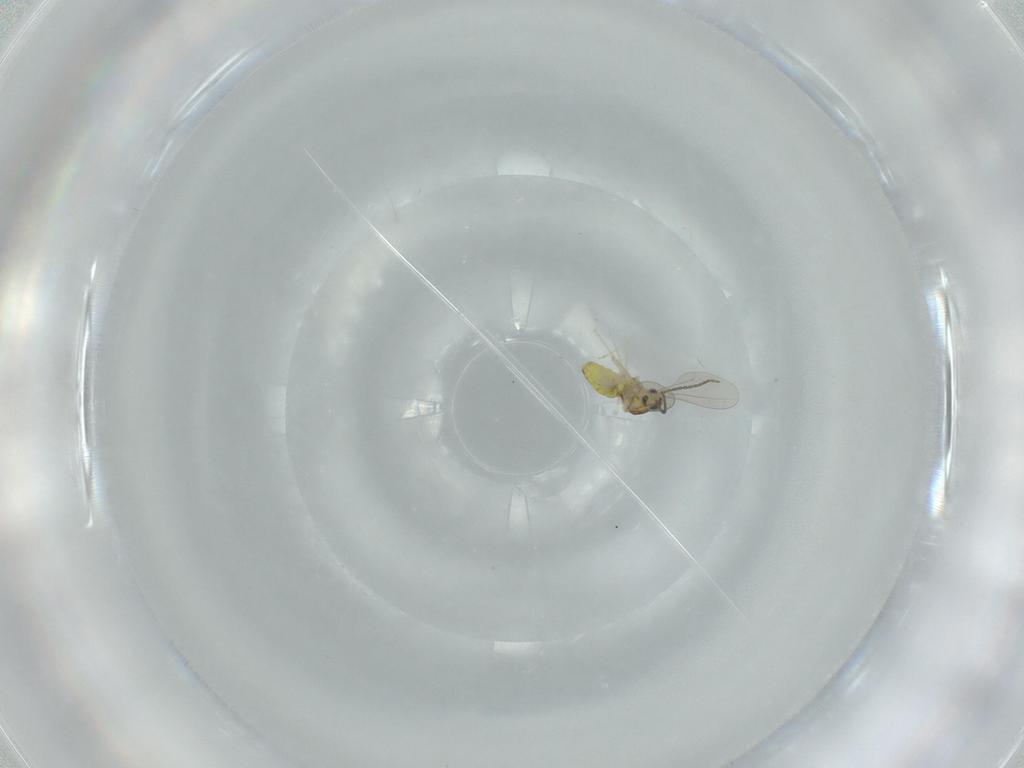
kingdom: Animalia
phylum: Arthropoda
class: Insecta
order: Diptera
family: Cecidomyiidae
